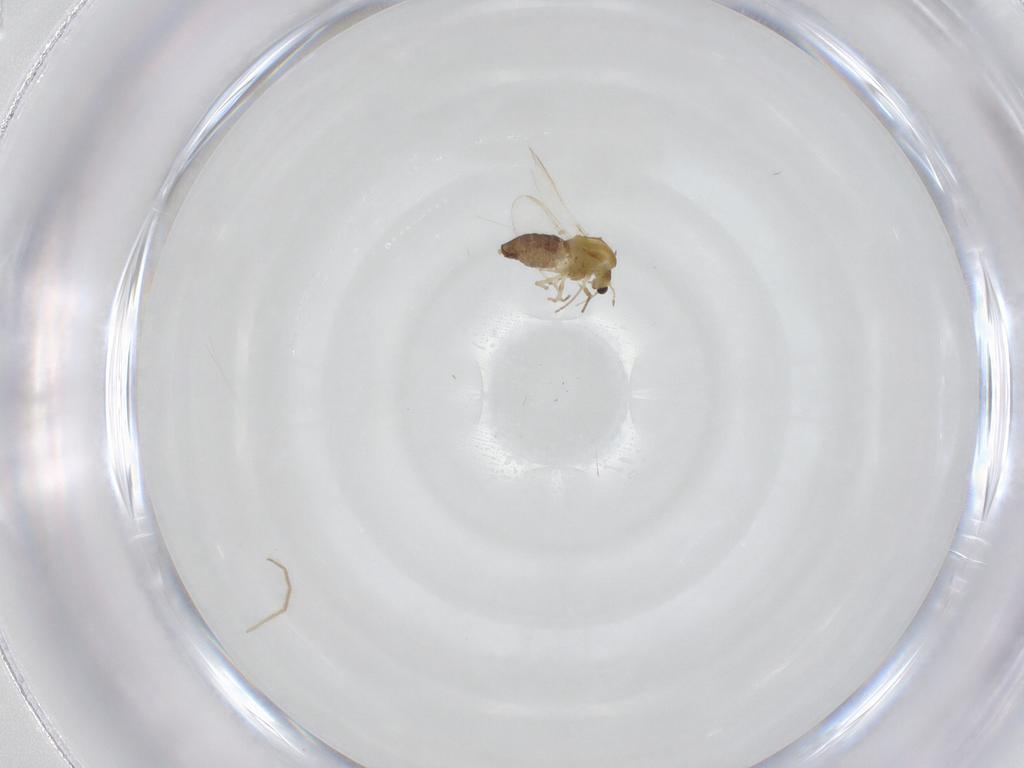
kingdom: Animalia
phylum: Arthropoda
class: Insecta
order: Diptera
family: Chironomidae
